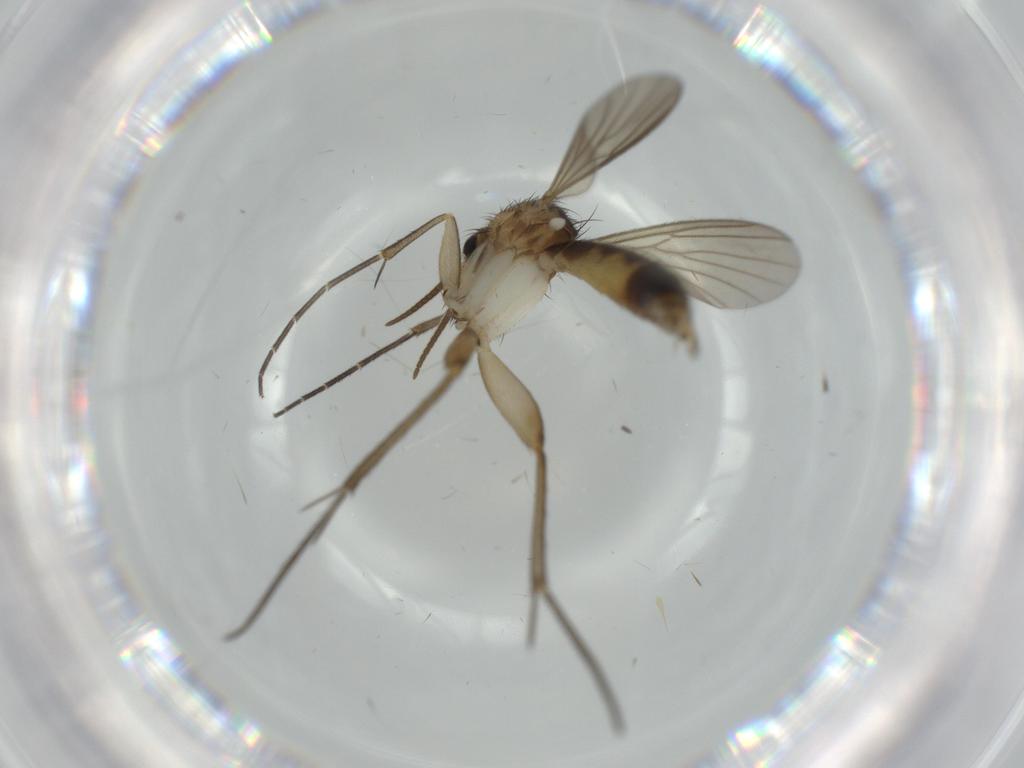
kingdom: Animalia
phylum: Arthropoda
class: Insecta
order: Diptera
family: Mycetophilidae
